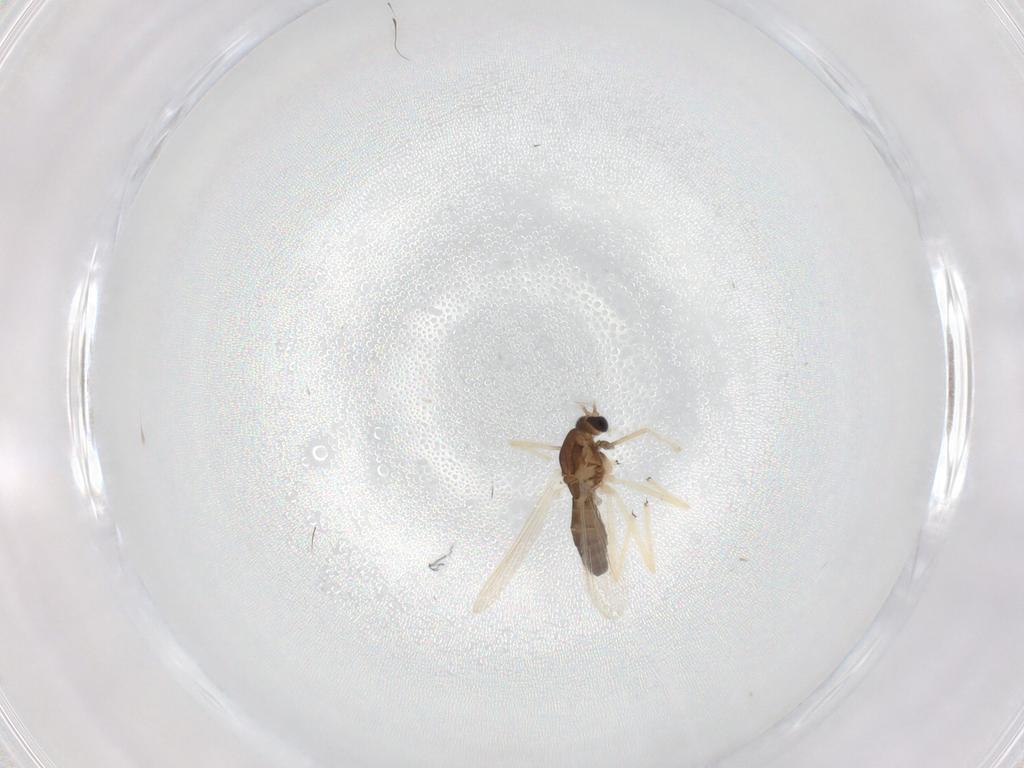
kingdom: Animalia
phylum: Arthropoda
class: Insecta
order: Diptera
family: Chironomidae
